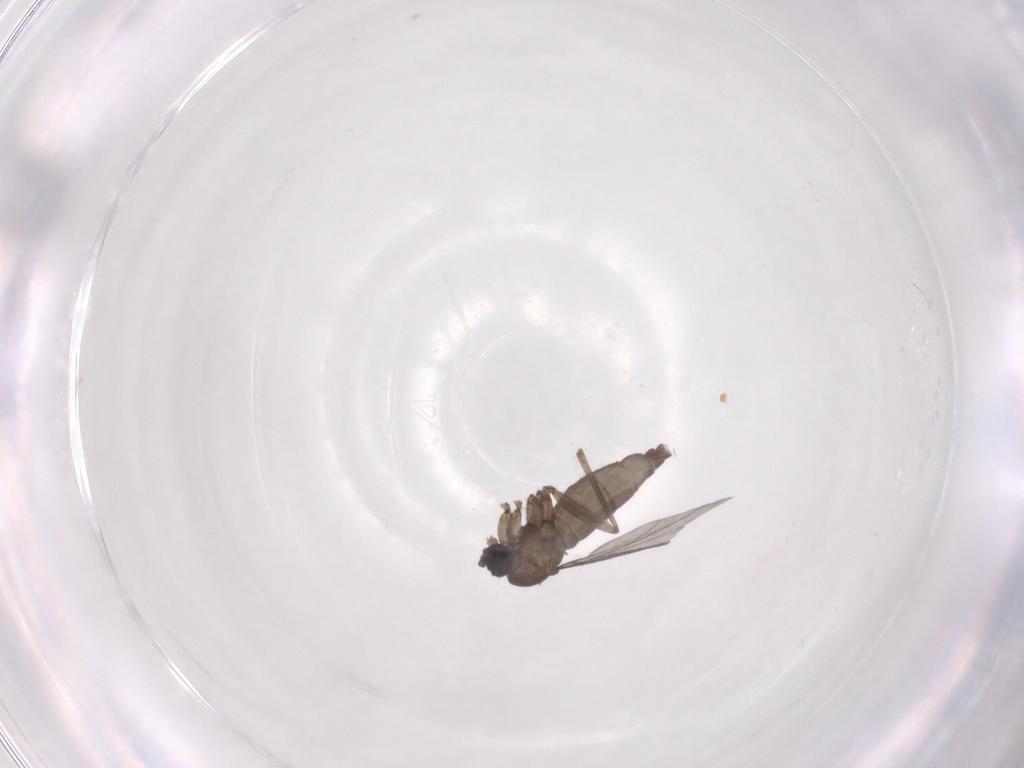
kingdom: Animalia
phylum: Arthropoda
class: Insecta
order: Diptera
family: Sciaridae
